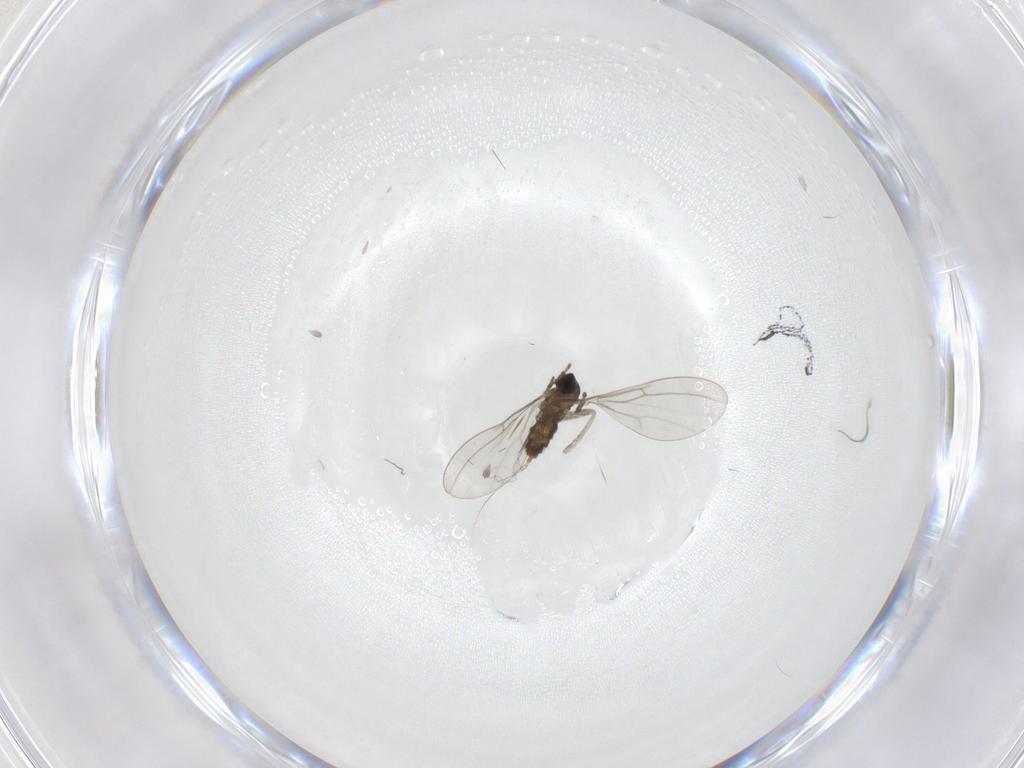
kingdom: Animalia
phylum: Arthropoda
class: Insecta
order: Diptera
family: Cecidomyiidae
